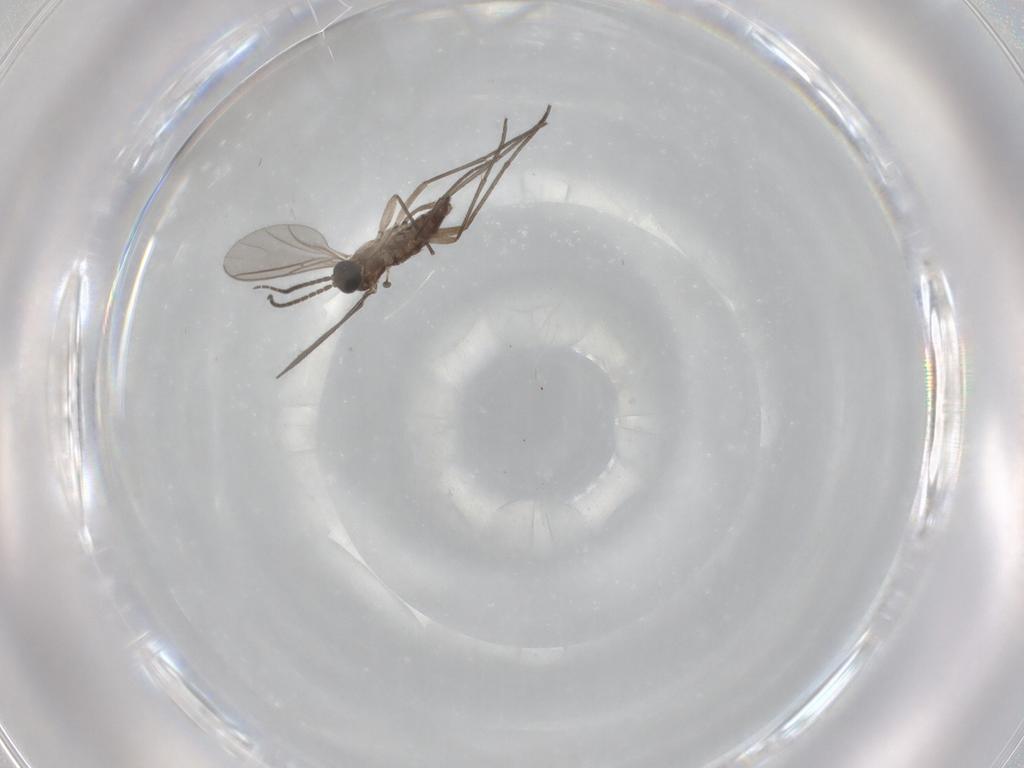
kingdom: Animalia
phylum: Arthropoda
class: Insecta
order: Diptera
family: Sciaridae
